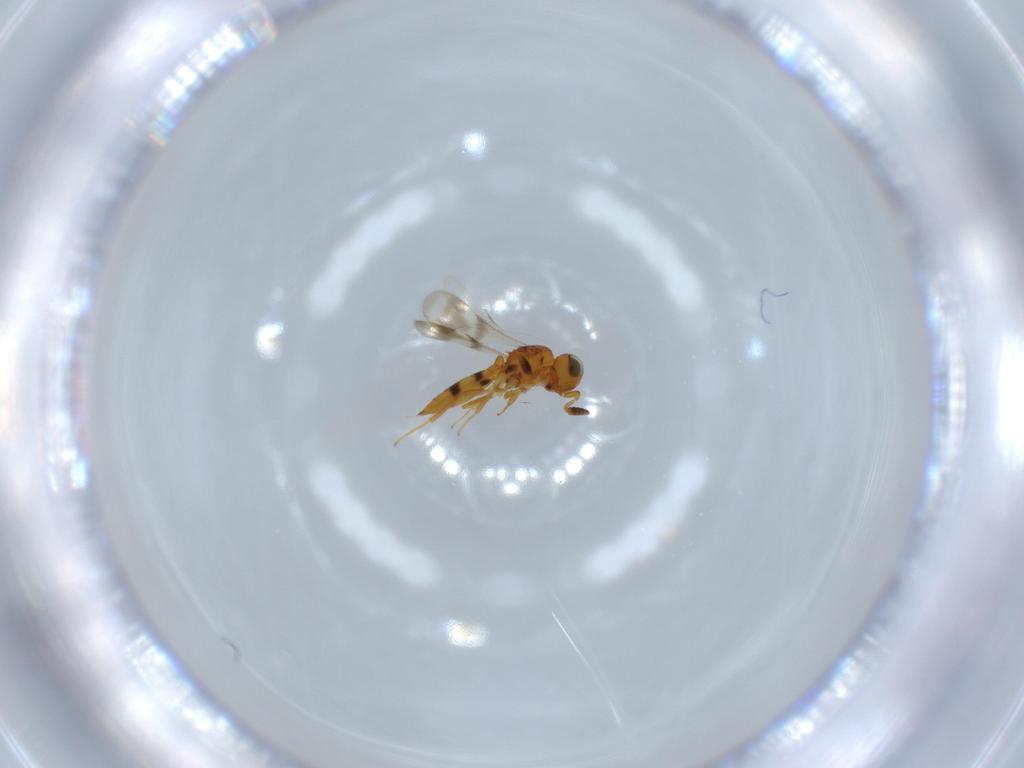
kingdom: Animalia
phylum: Arthropoda
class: Insecta
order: Hymenoptera
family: Scelionidae
